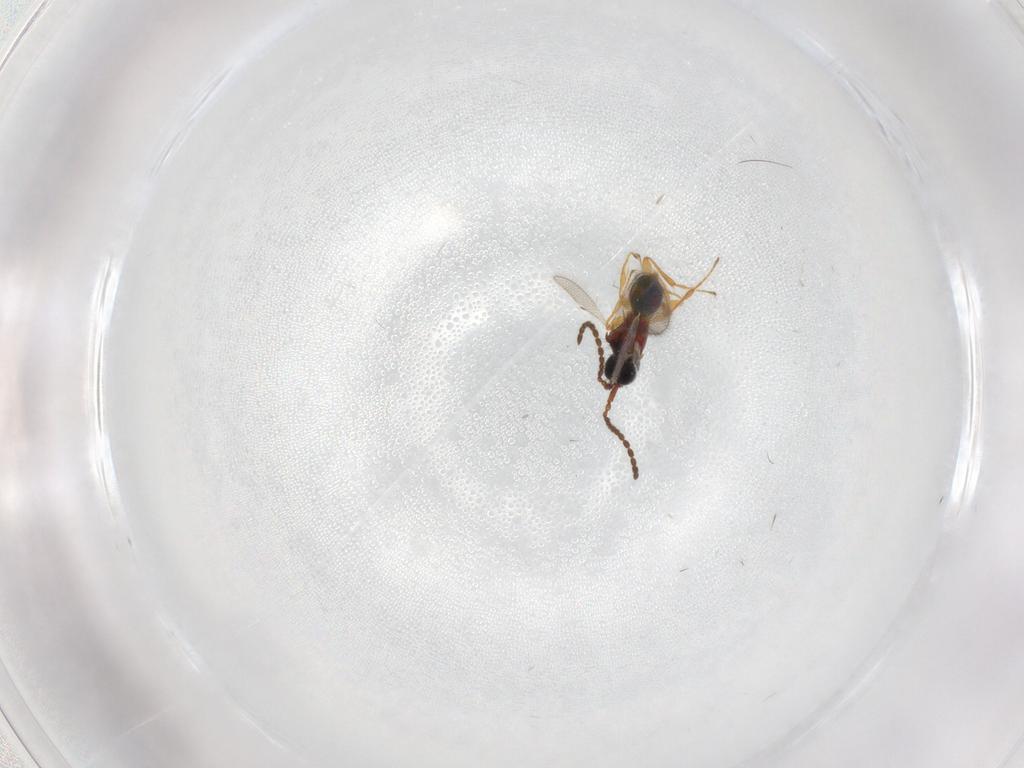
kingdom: Animalia
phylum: Arthropoda
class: Insecta
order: Hymenoptera
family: Diapriidae
